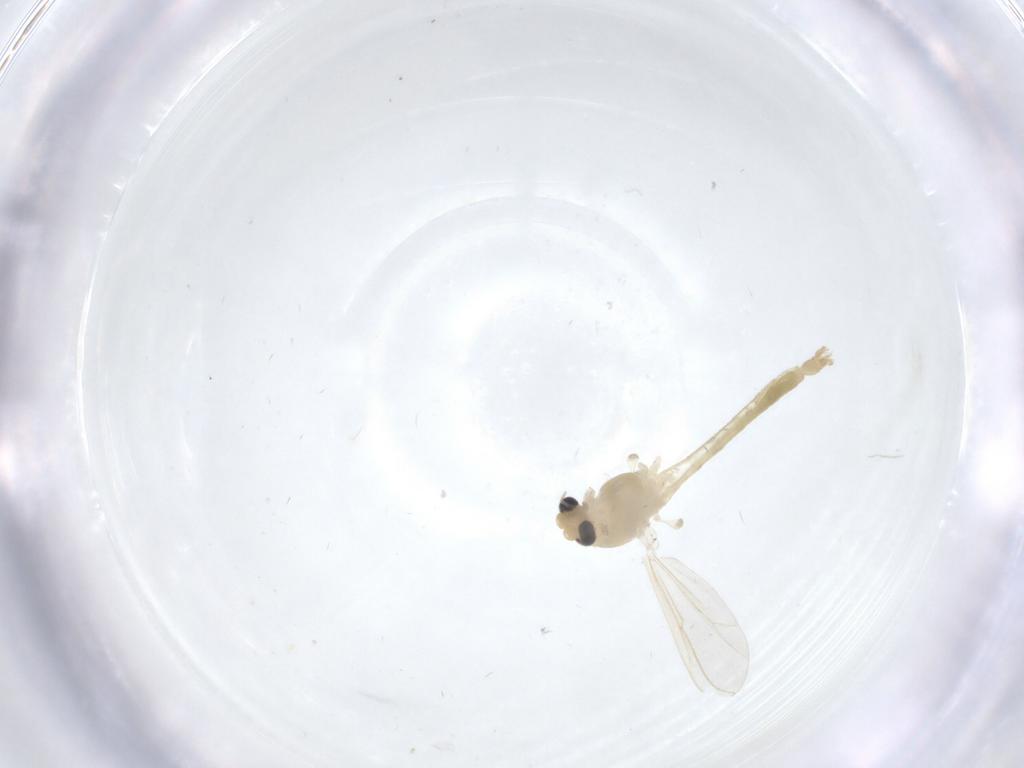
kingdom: Animalia
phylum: Arthropoda
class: Insecta
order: Diptera
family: Chironomidae
